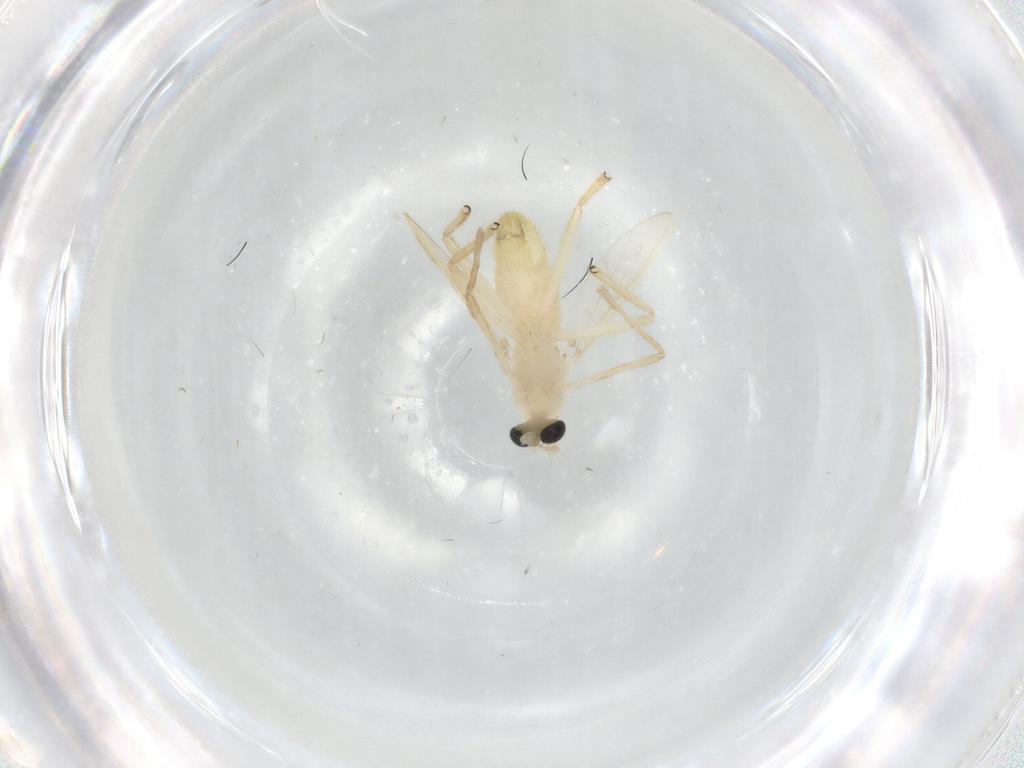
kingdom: Animalia
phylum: Arthropoda
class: Insecta
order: Diptera
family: Chironomidae
